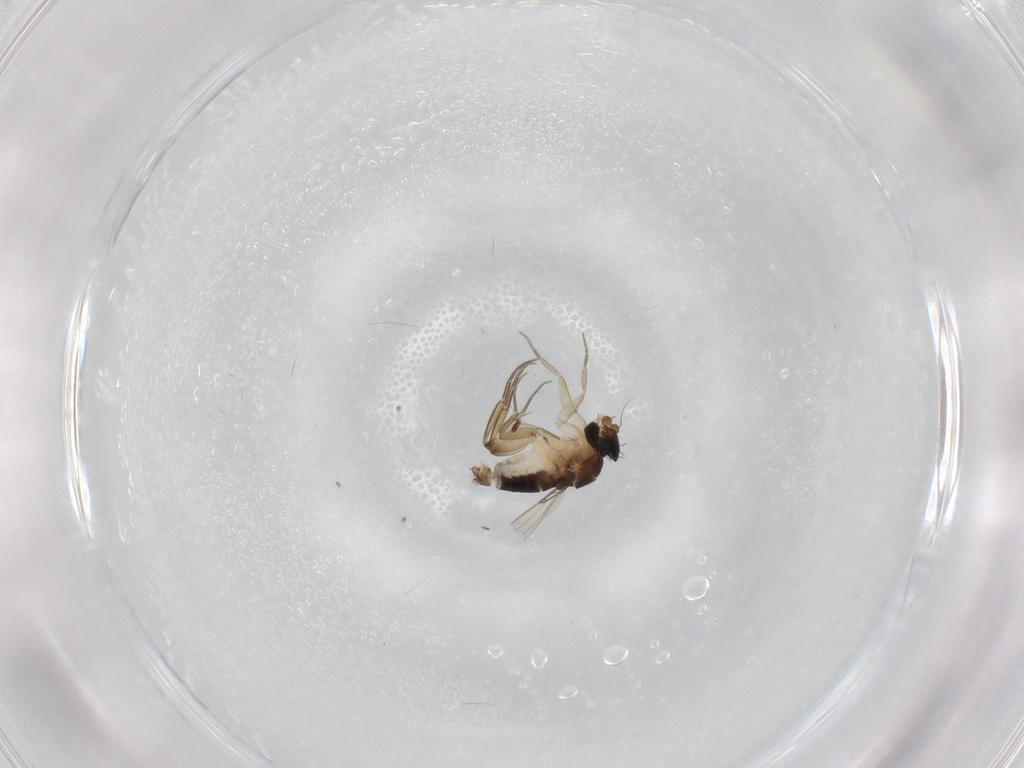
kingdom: Animalia
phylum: Arthropoda
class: Insecta
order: Diptera
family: Phoridae
